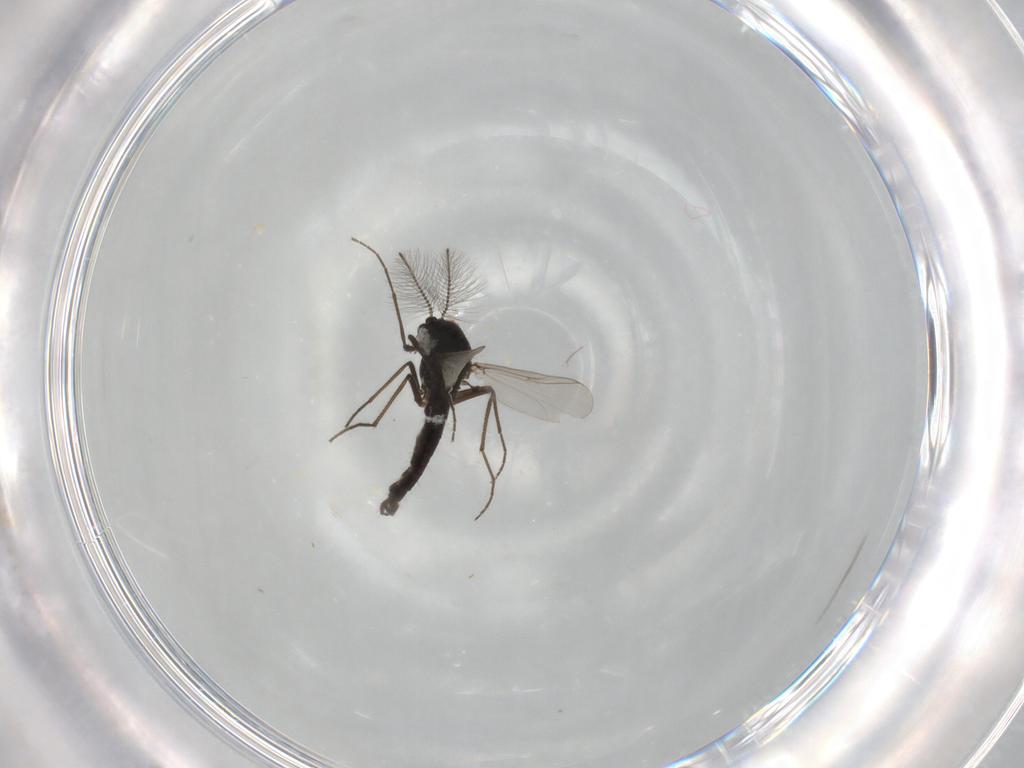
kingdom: Animalia
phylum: Arthropoda
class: Insecta
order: Diptera
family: Chironomidae
